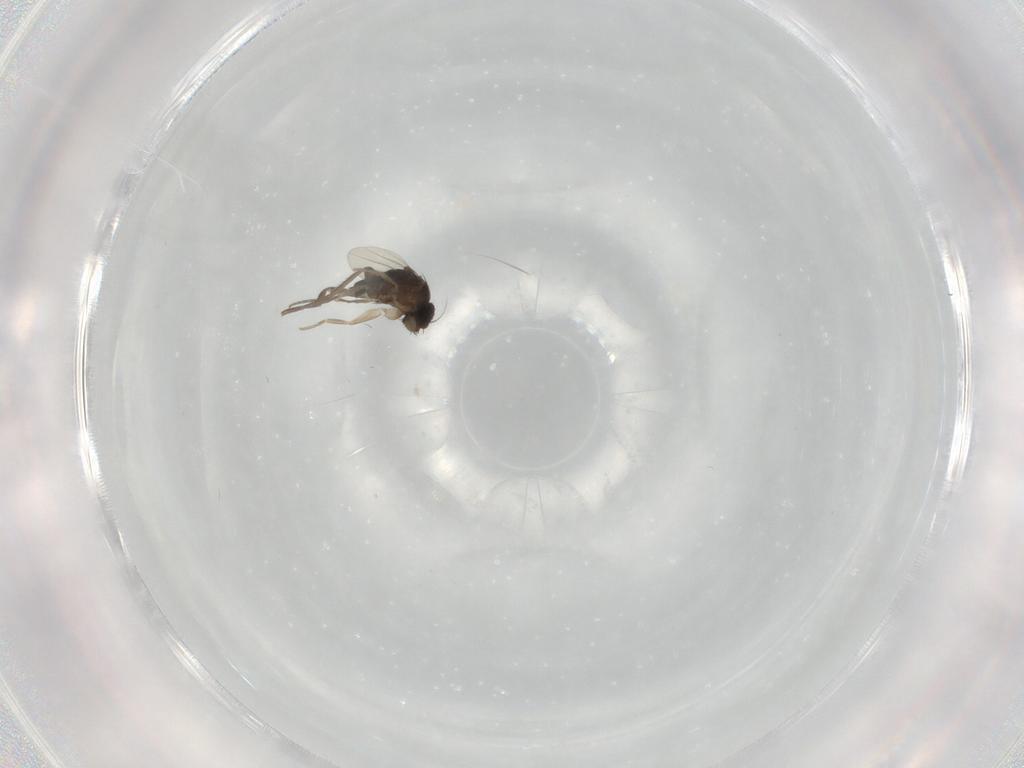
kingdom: Animalia
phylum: Arthropoda
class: Insecta
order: Diptera
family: Phoridae
